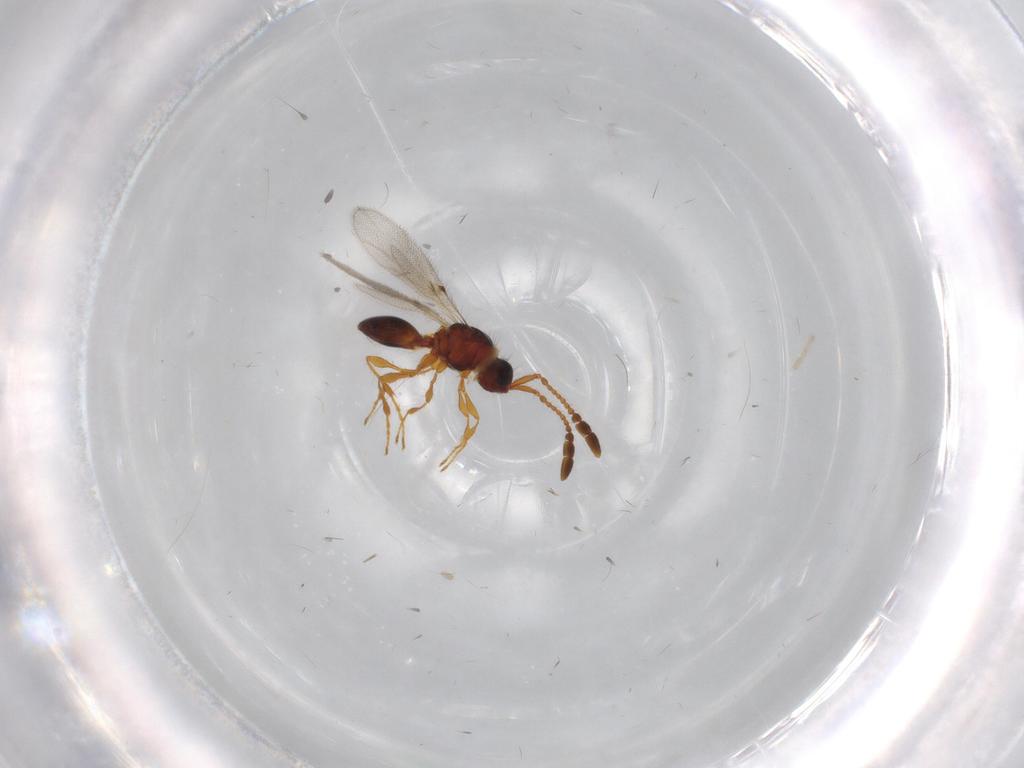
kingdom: Animalia
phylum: Arthropoda
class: Insecta
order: Hymenoptera
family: Diapriidae
